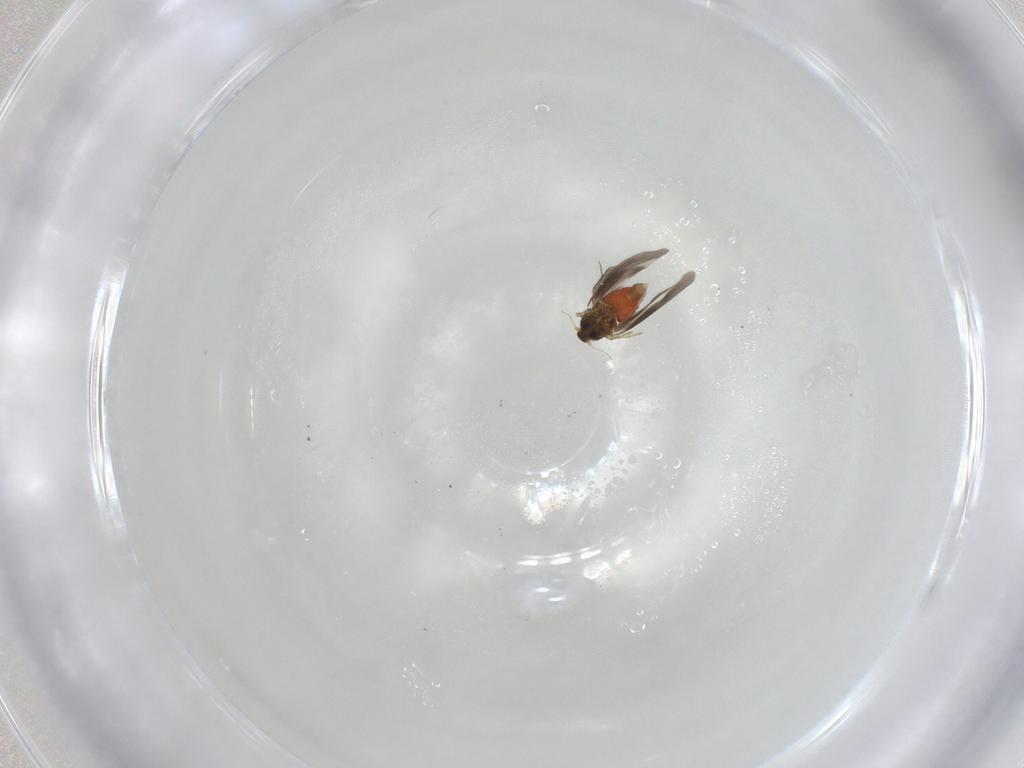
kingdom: Animalia
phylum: Arthropoda
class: Insecta
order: Hemiptera
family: Aleyrodidae
